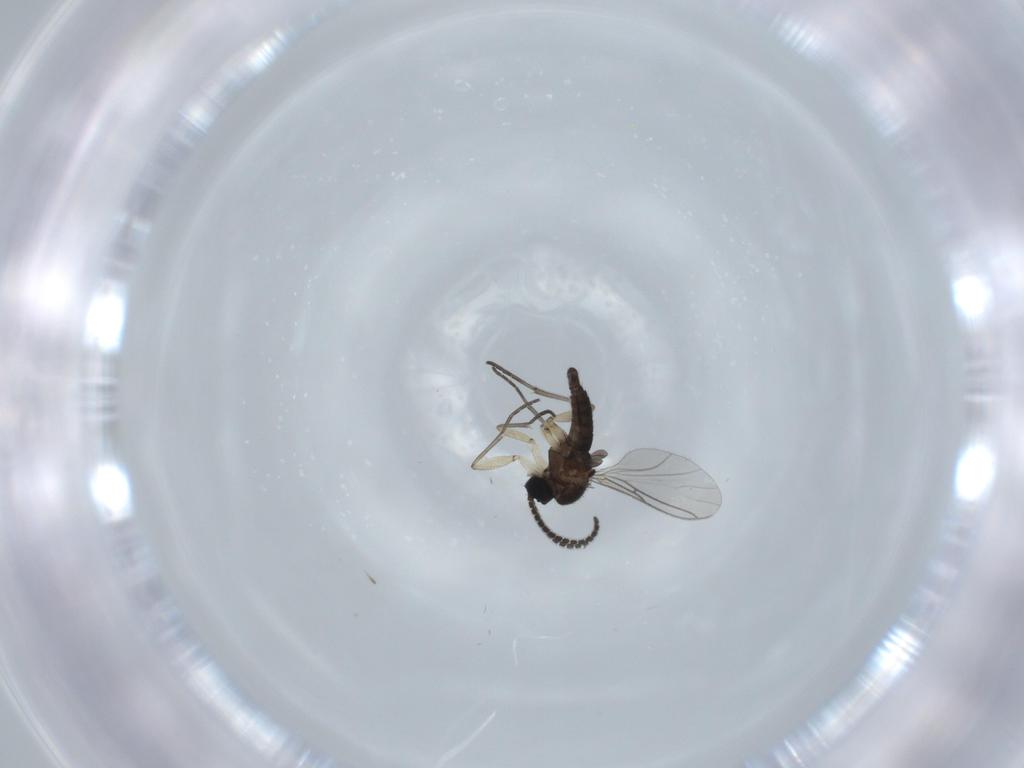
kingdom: Animalia
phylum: Arthropoda
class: Insecta
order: Diptera
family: Sciaridae
